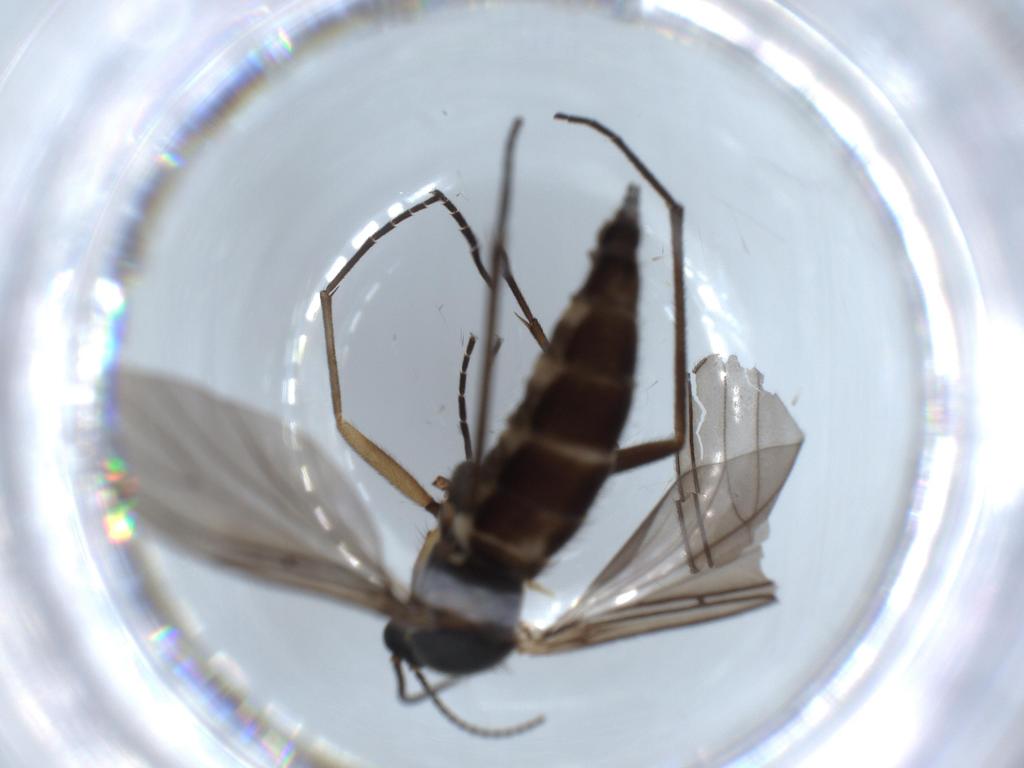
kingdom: Animalia
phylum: Arthropoda
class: Insecta
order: Diptera
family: Sciaridae
